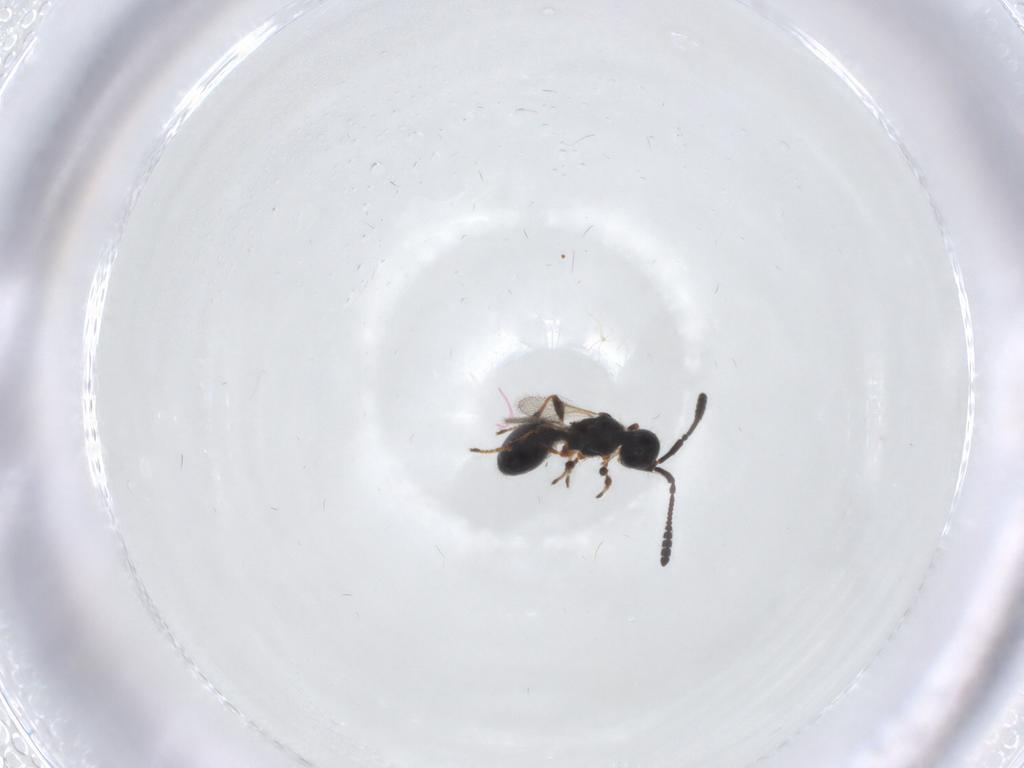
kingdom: Animalia
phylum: Arthropoda
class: Insecta
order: Hymenoptera
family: Diapriidae
